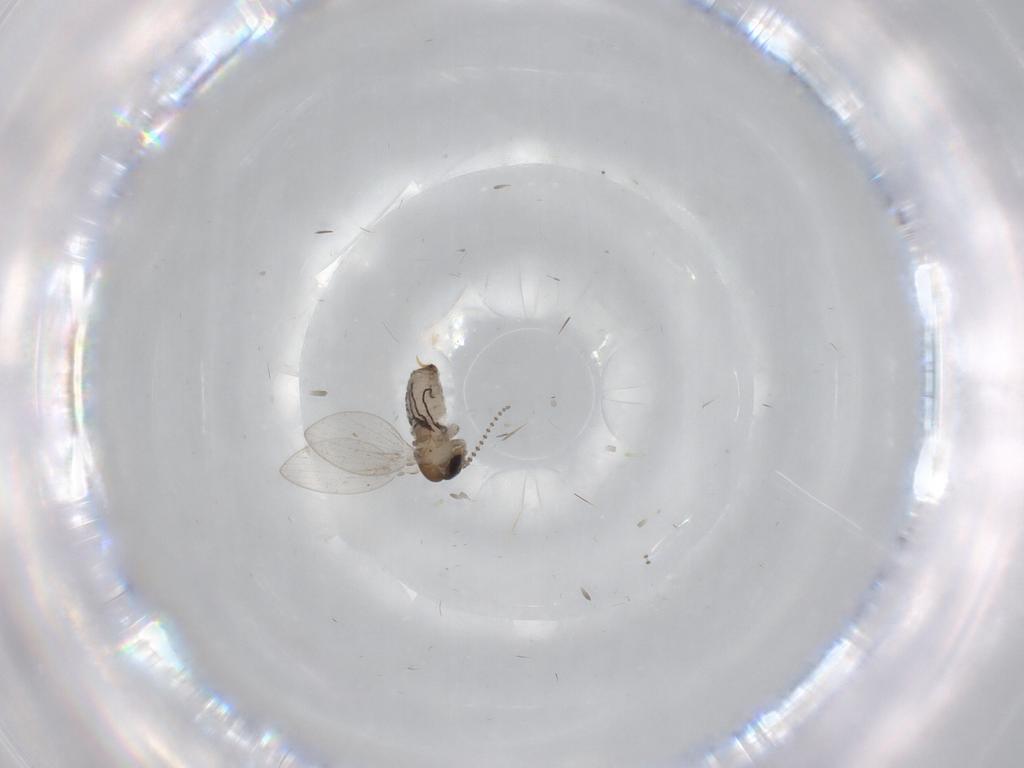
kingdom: Animalia
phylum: Arthropoda
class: Insecta
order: Diptera
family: Psychodidae
